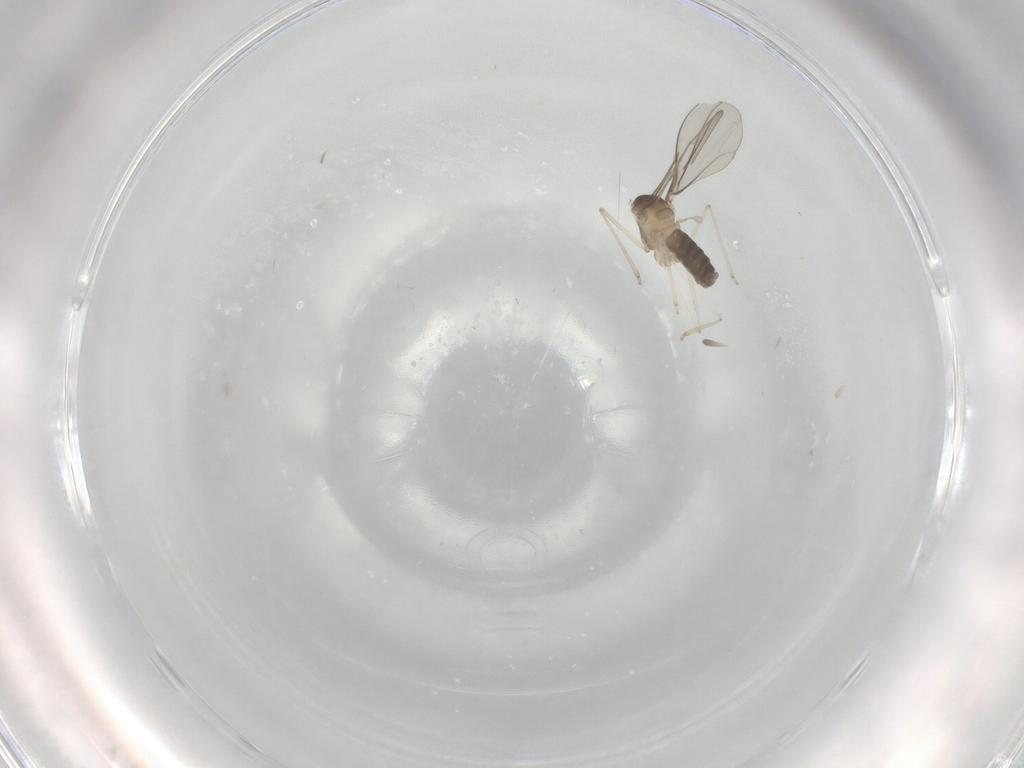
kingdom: Animalia
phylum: Arthropoda
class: Insecta
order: Diptera
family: Cecidomyiidae
